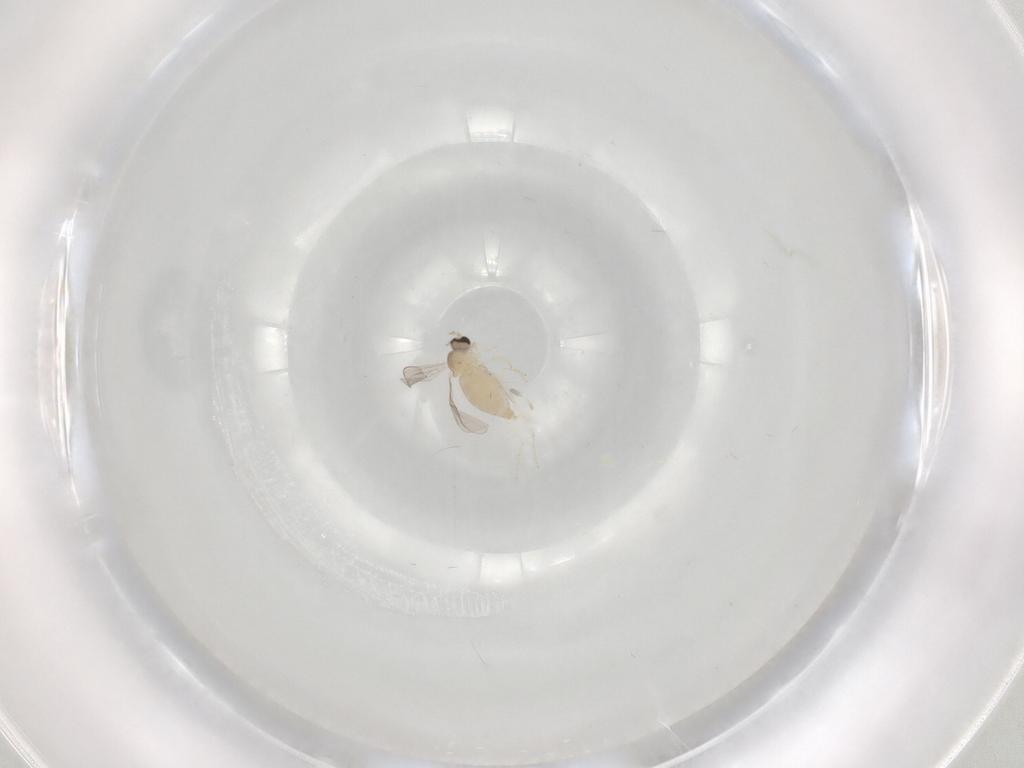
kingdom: Animalia
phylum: Arthropoda
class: Insecta
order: Diptera
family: Cecidomyiidae
